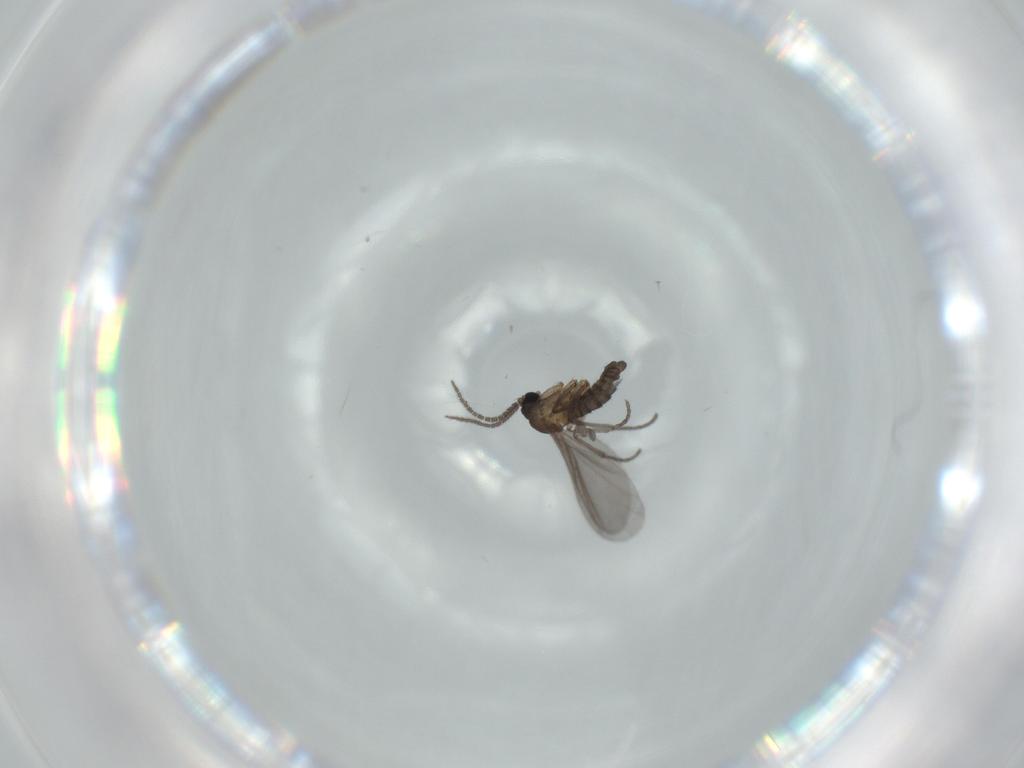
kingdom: Animalia
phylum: Arthropoda
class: Insecta
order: Diptera
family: Sciaridae
